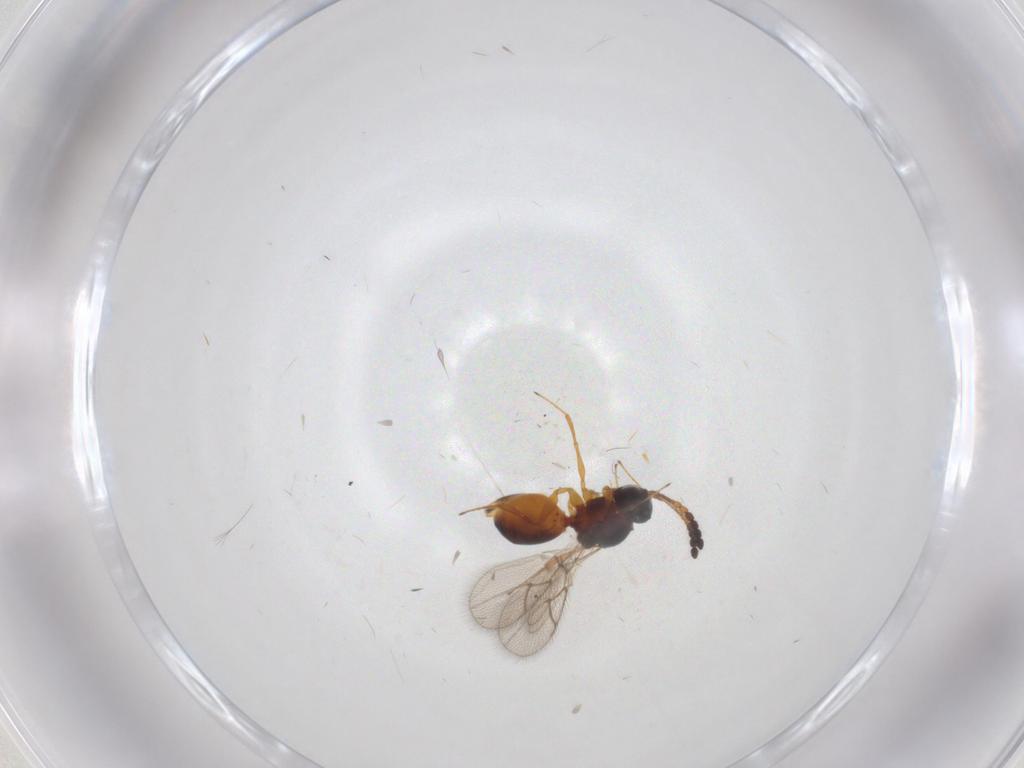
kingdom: Animalia
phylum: Arthropoda
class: Insecta
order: Hymenoptera
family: Figitidae
